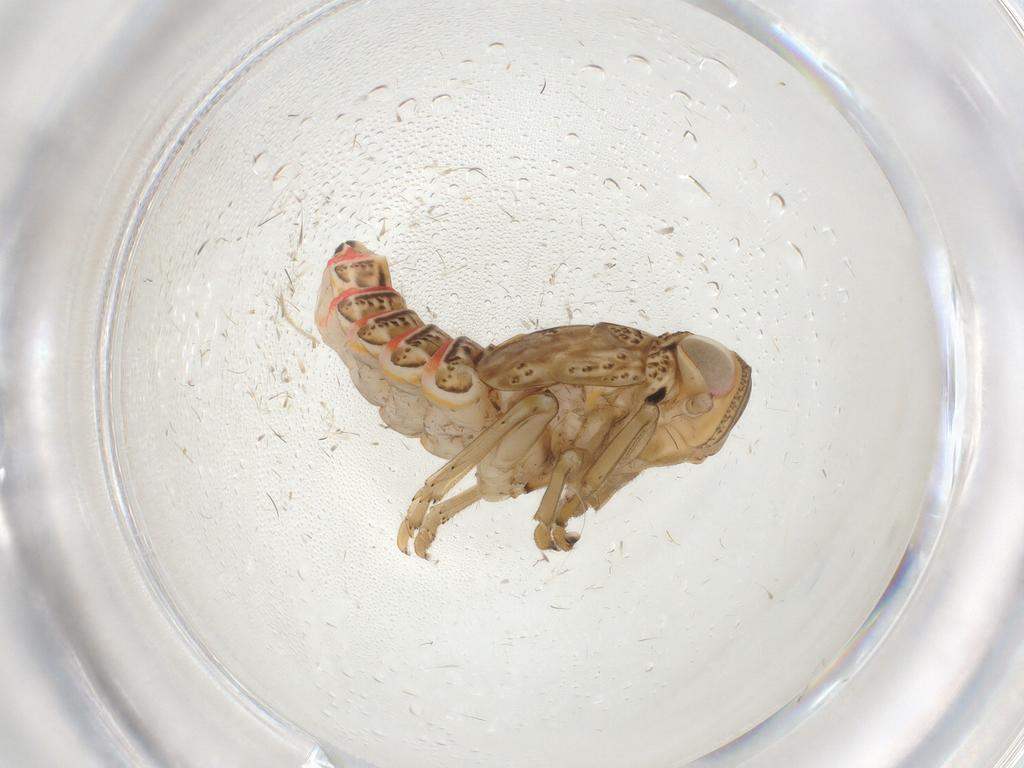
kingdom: Animalia
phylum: Arthropoda
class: Insecta
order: Hemiptera
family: Issidae
